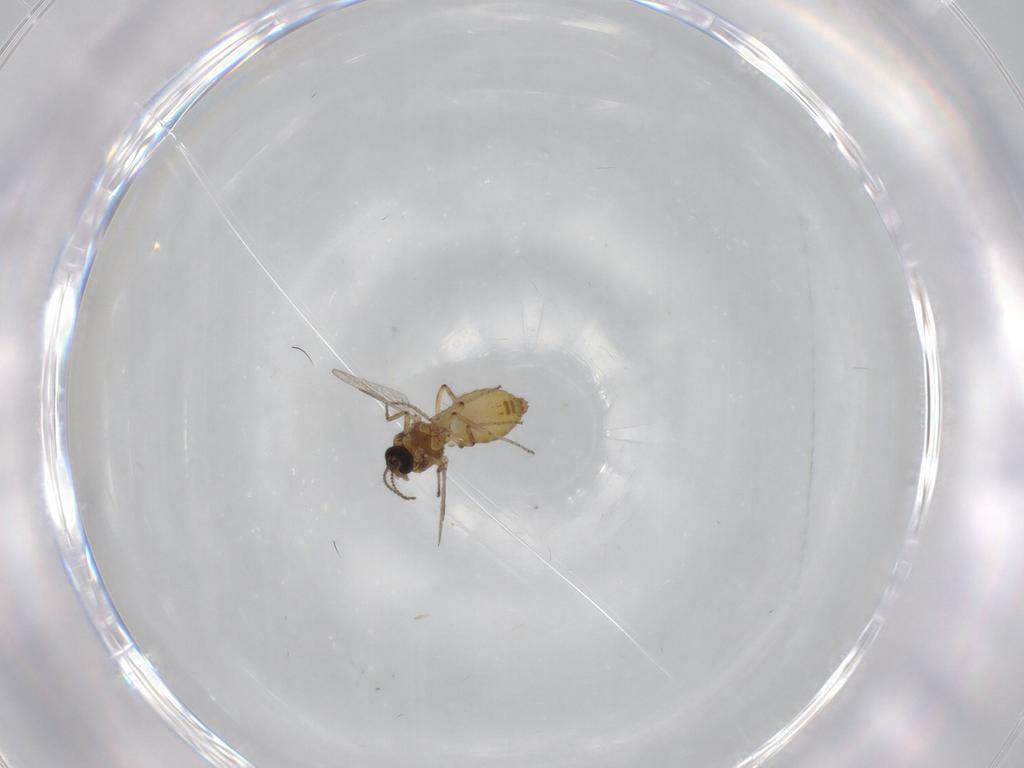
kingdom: Animalia
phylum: Arthropoda
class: Insecta
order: Diptera
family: Ceratopogonidae
